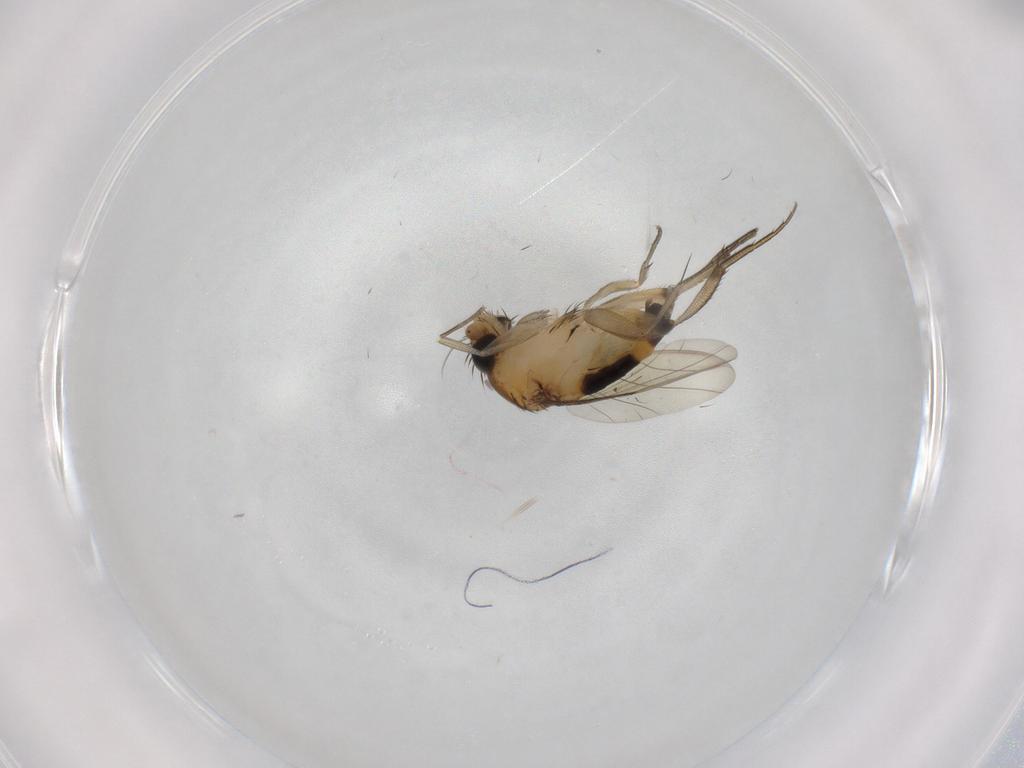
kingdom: Animalia
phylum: Arthropoda
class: Insecta
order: Diptera
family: Phoridae
